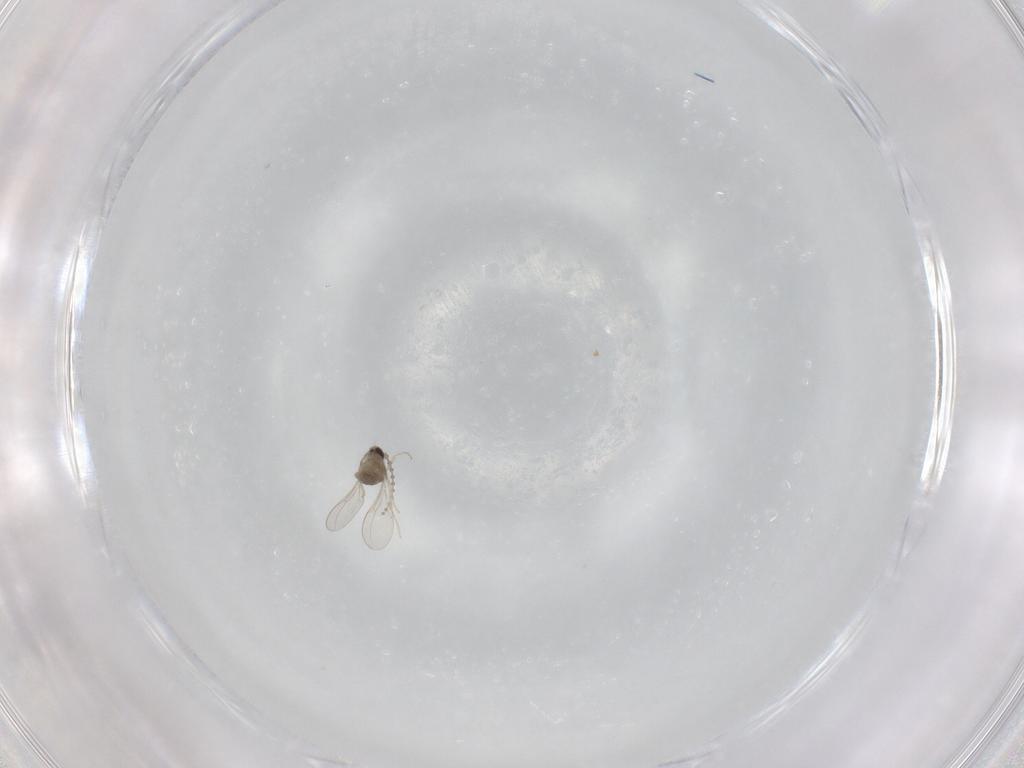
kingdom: Animalia
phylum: Arthropoda
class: Insecta
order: Diptera
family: Cecidomyiidae
